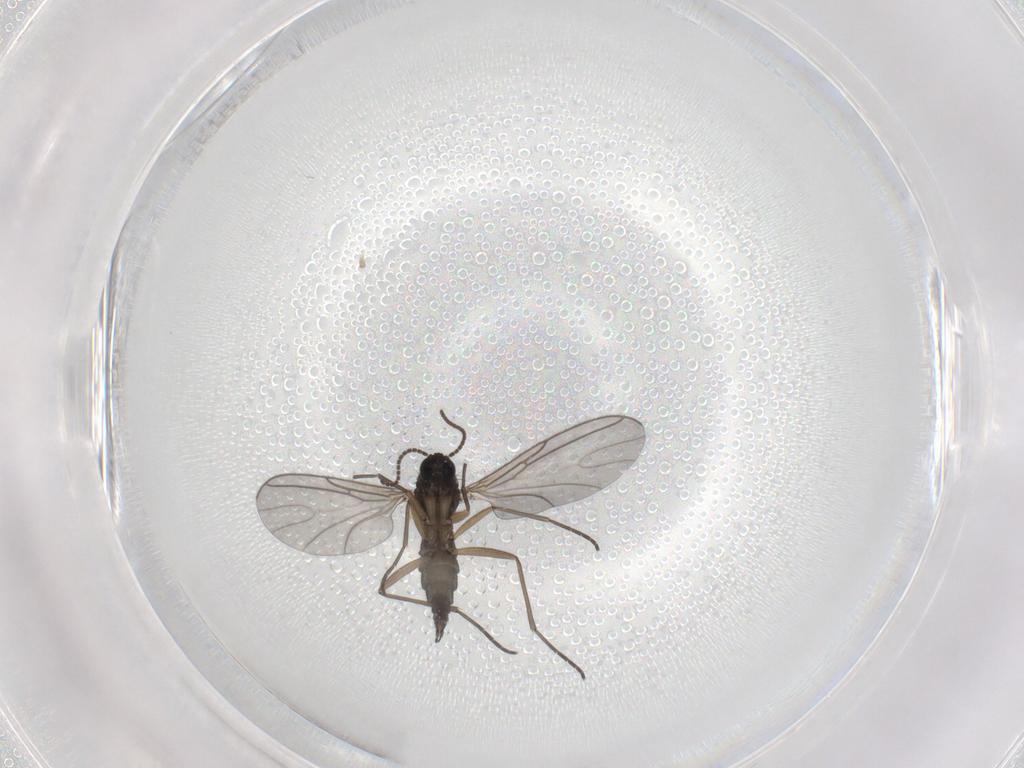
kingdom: Animalia
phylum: Arthropoda
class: Insecta
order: Diptera
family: Sciaridae
